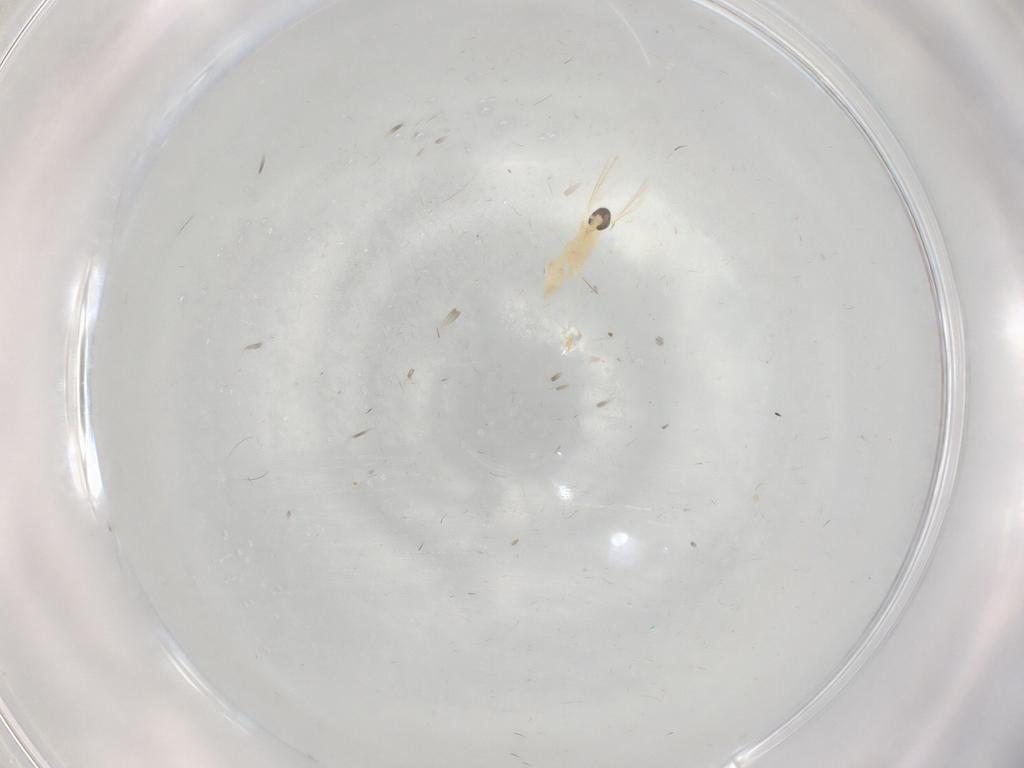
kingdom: Animalia
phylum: Arthropoda
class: Insecta
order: Diptera
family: Cecidomyiidae
